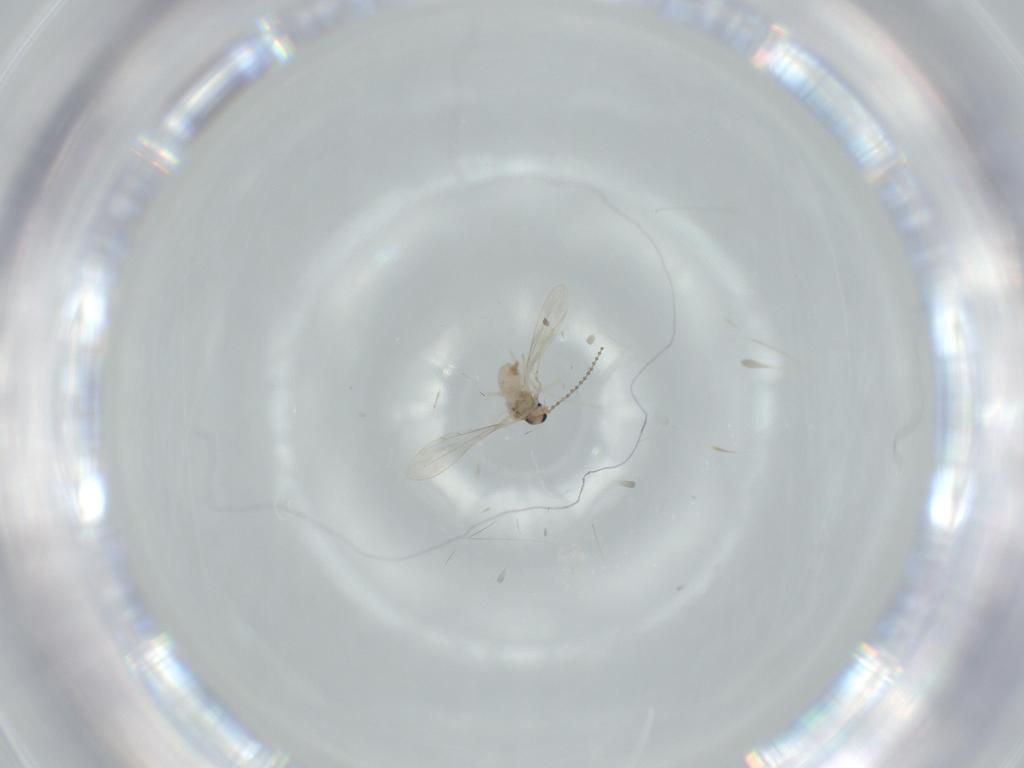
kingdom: Animalia
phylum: Arthropoda
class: Insecta
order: Diptera
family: Cecidomyiidae
